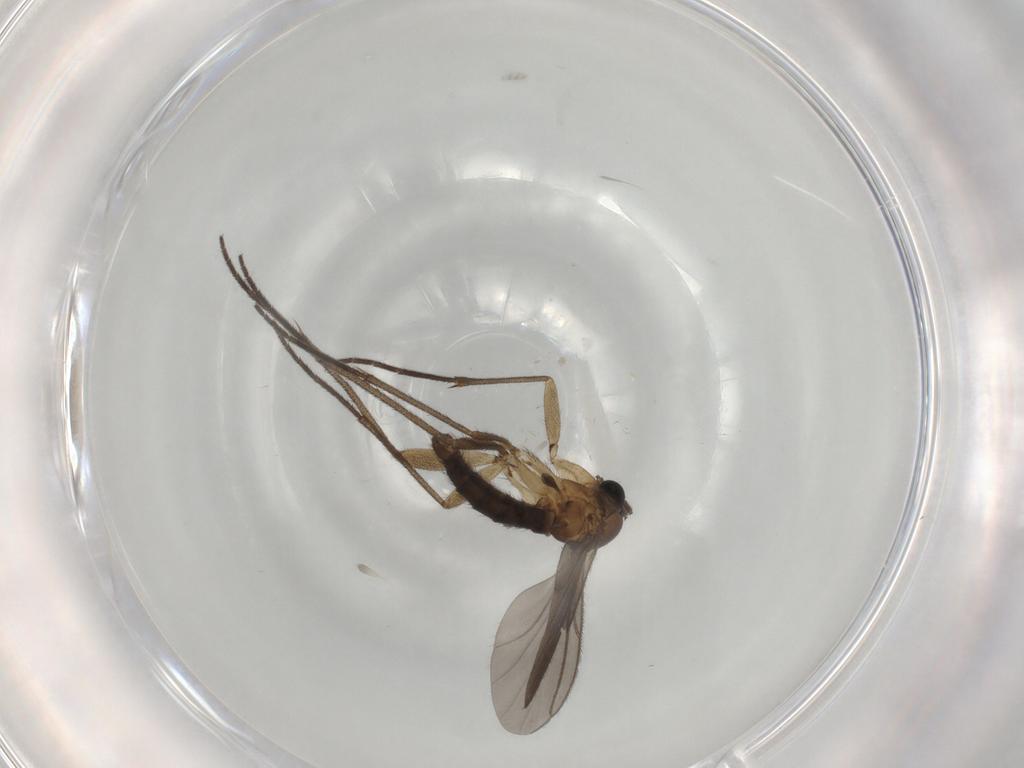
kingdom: Animalia
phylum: Arthropoda
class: Insecta
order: Diptera
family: Sciaridae
